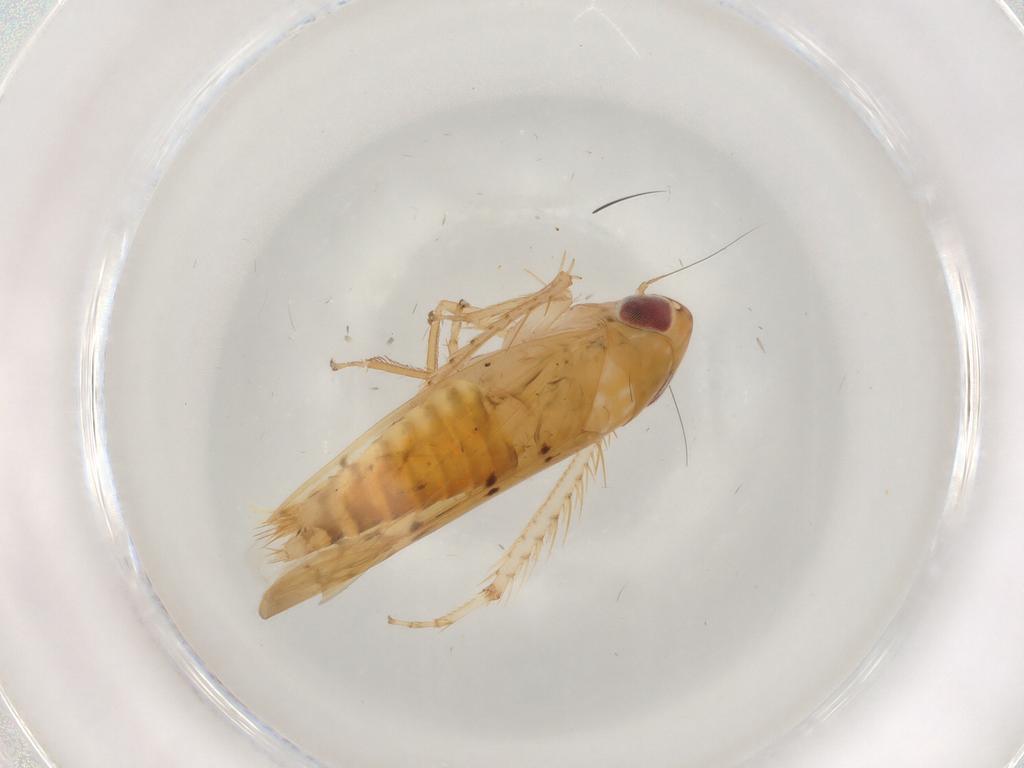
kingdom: Animalia
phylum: Arthropoda
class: Insecta
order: Hemiptera
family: Cicadellidae
